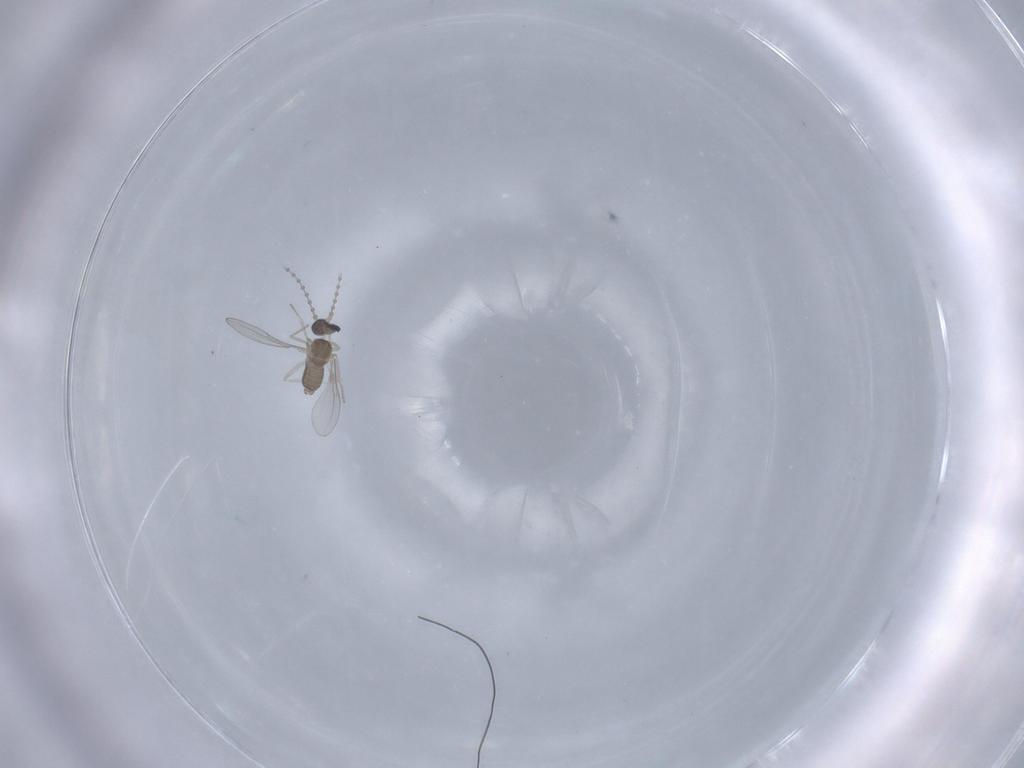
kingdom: Animalia
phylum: Arthropoda
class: Insecta
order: Diptera
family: Cecidomyiidae
